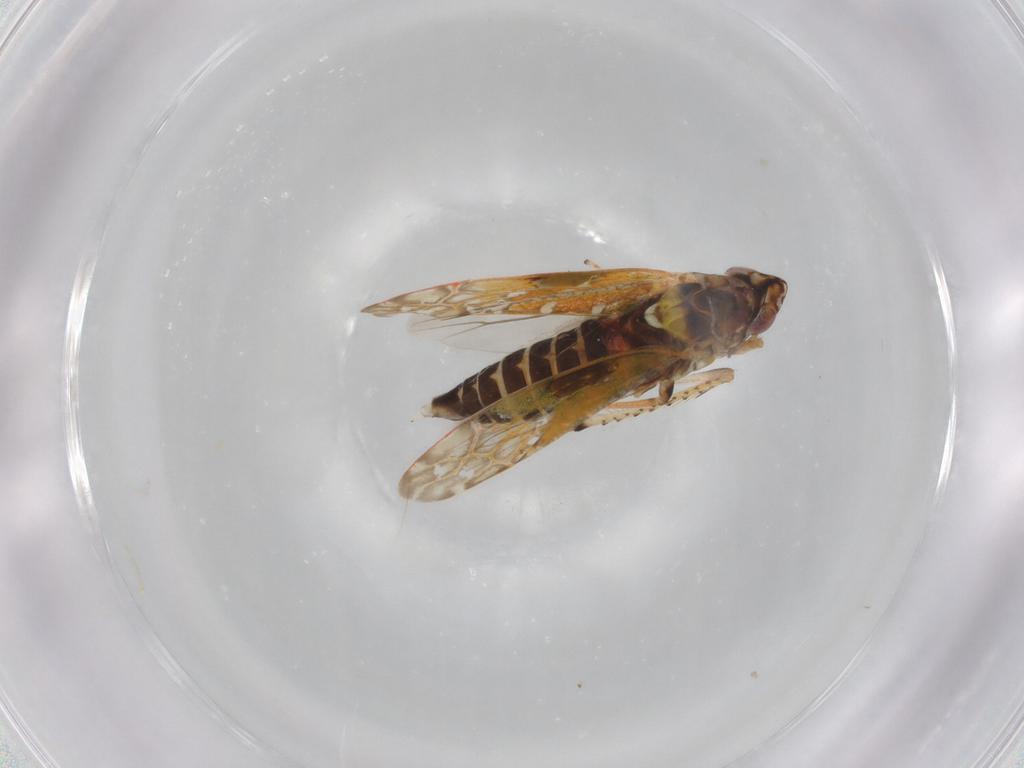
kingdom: Animalia
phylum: Arthropoda
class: Insecta
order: Hemiptera
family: Cicadellidae
